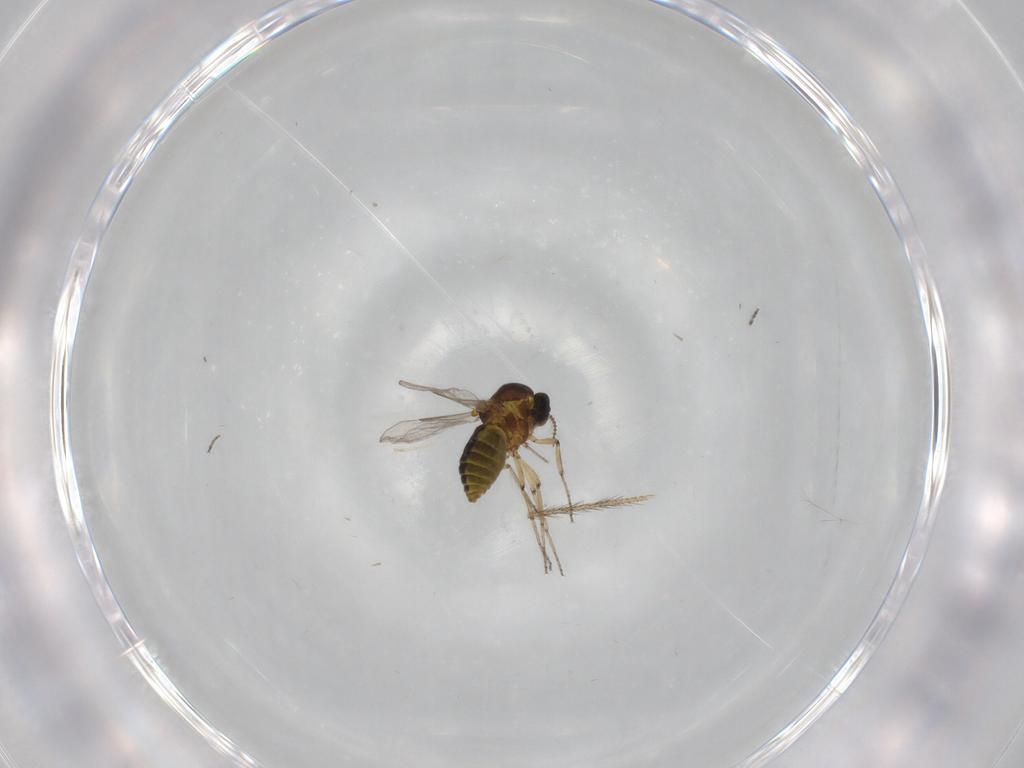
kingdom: Animalia
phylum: Arthropoda
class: Insecta
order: Diptera
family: Ceratopogonidae
